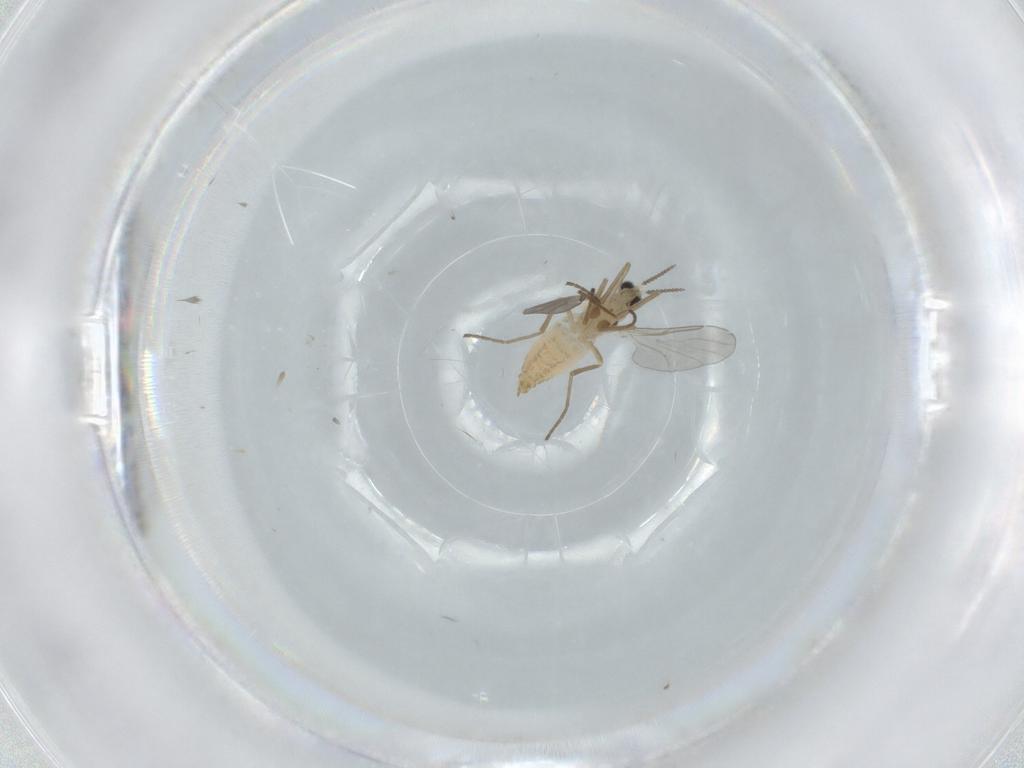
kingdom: Animalia
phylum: Arthropoda
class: Insecta
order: Diptera
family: Cecidomyiidae
